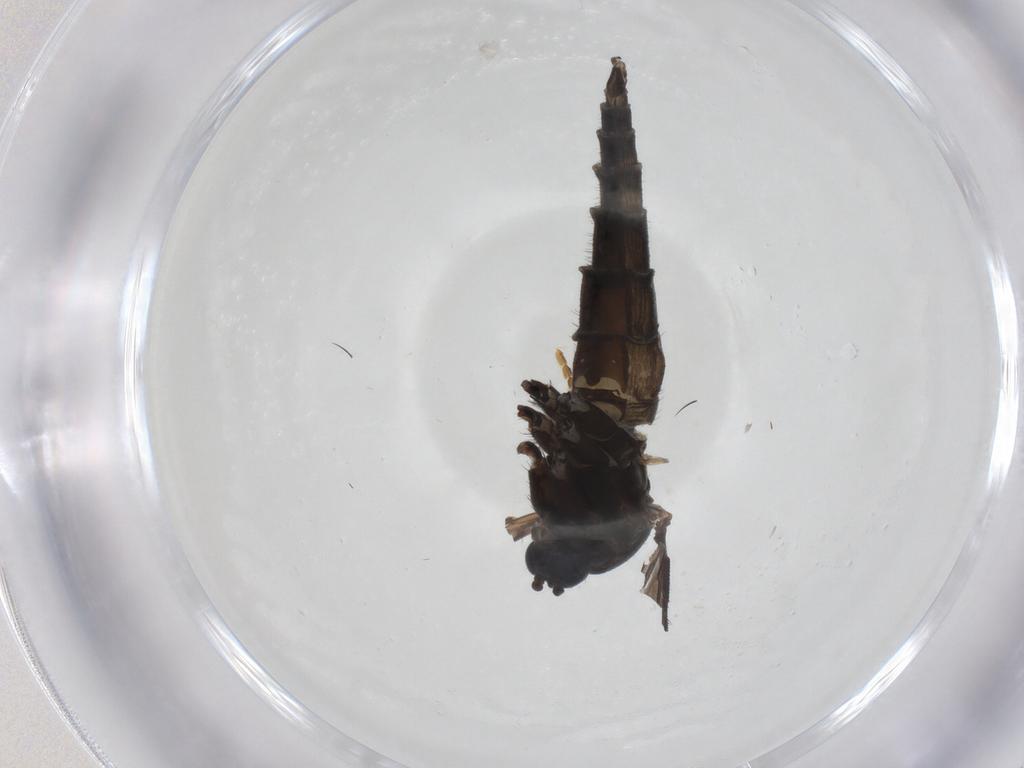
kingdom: Animalia
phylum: Arthropoda
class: Insecta
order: Diptera
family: Sciaridae
